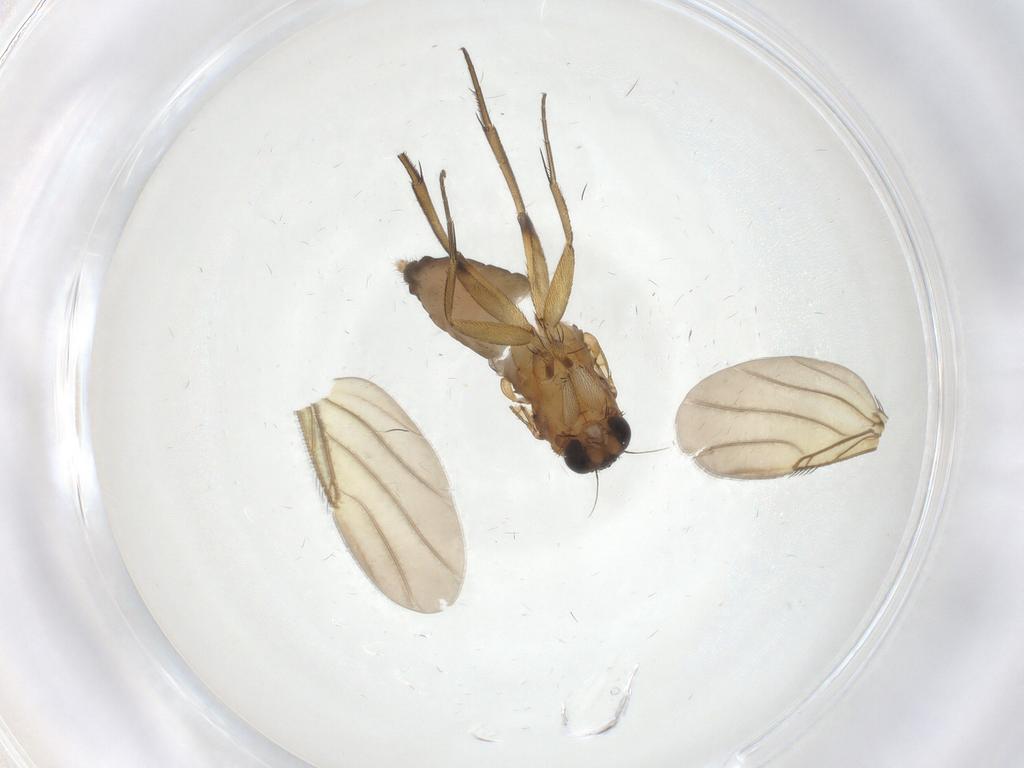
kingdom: Animalia
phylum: Arthropoda
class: Insecta
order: Diptera
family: Phoridae
